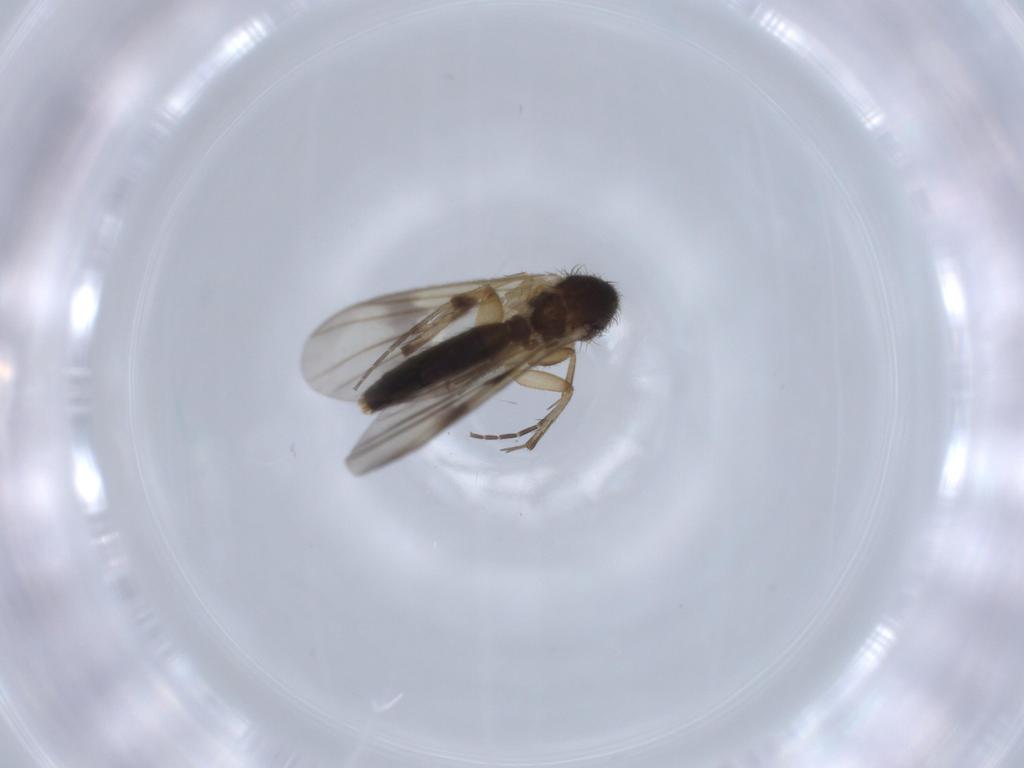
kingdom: Animalia
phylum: Arthropoda
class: Insecta
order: Diptera
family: Mycetophilidae
